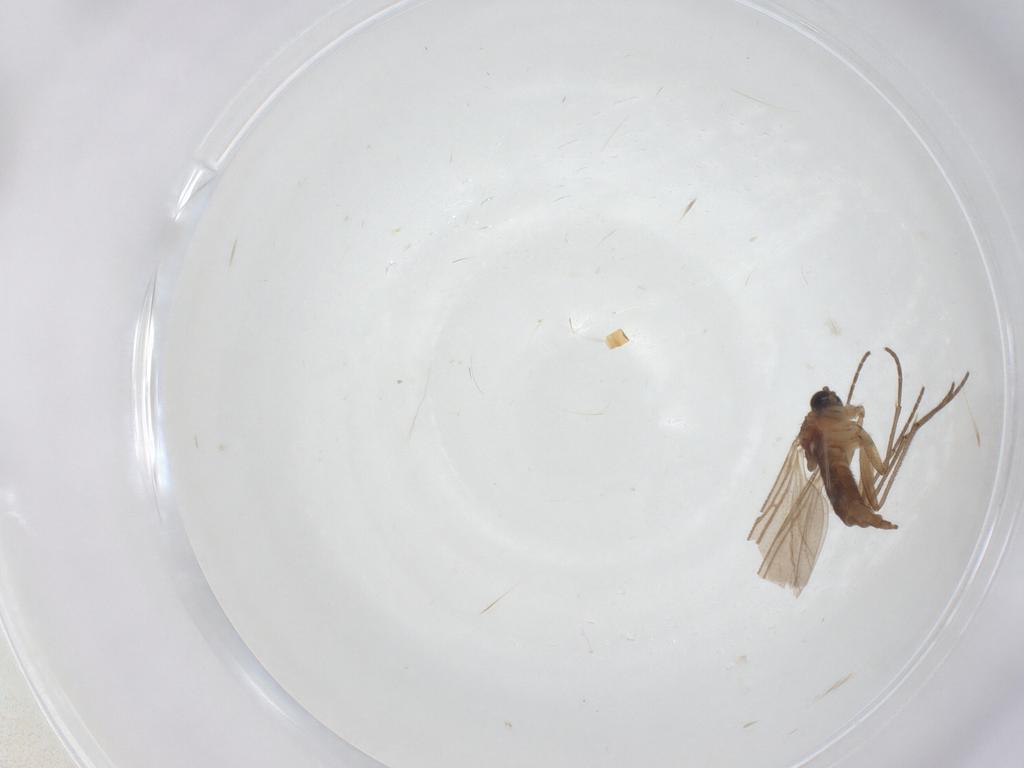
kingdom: Animalia
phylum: Arthropoda
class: Insecta
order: Diptera
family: Sciaridae
